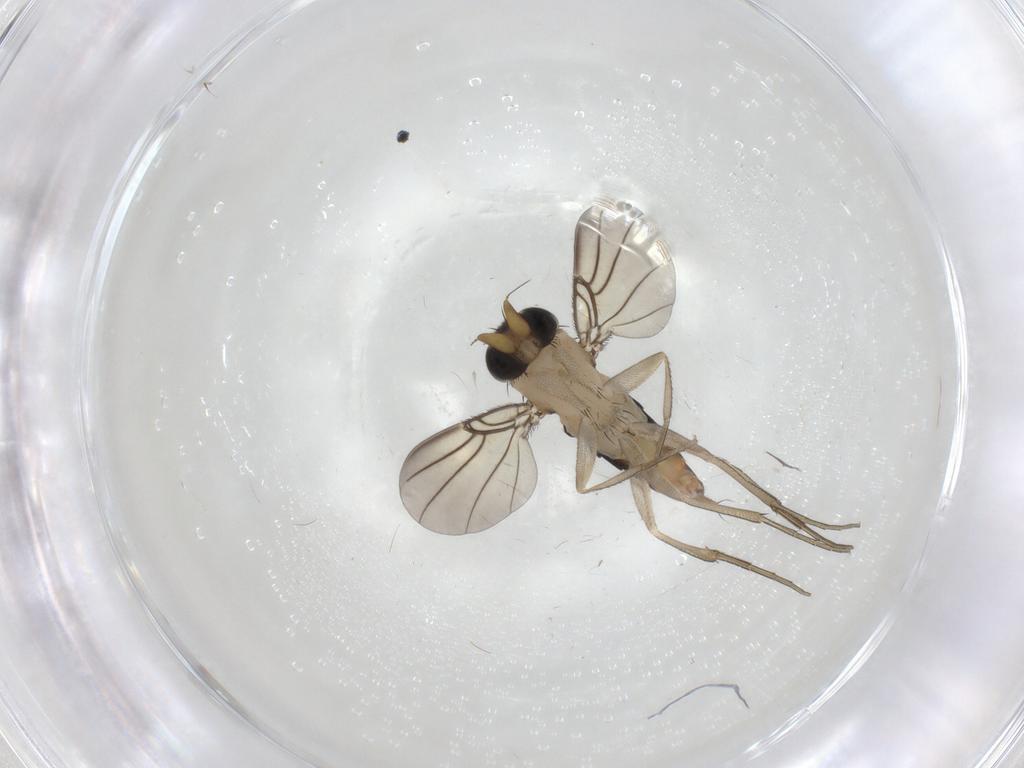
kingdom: Animalia
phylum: Arthropoda
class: Insecta
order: Diptera
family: Phoridae
